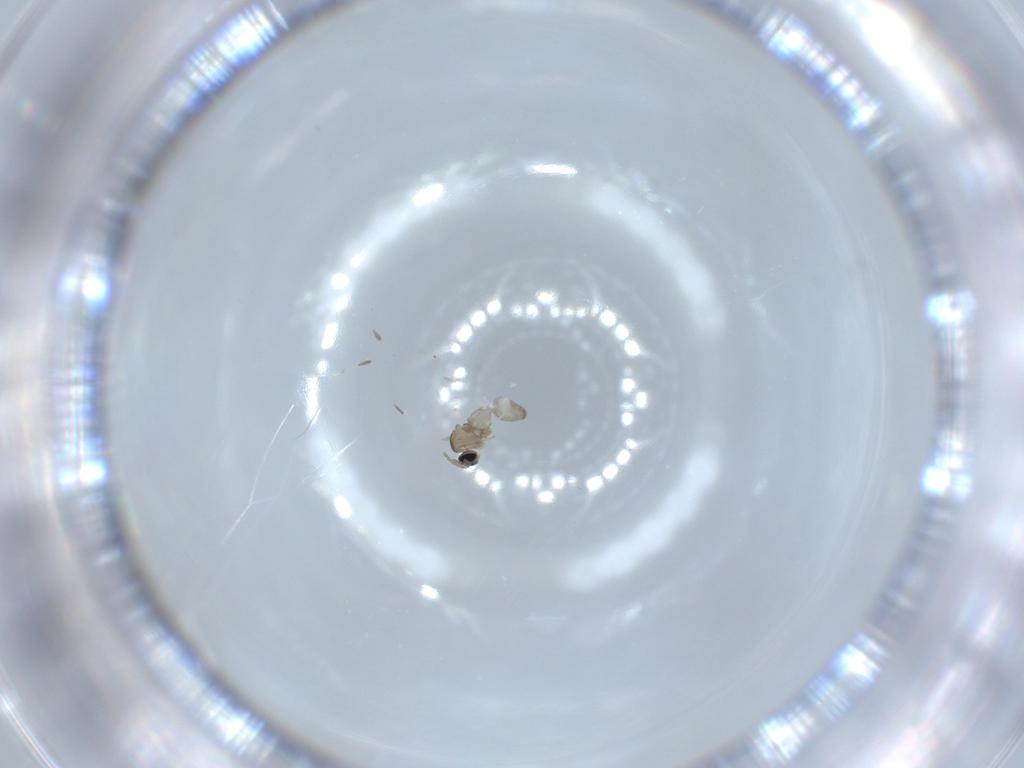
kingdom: Animalia
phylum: Arthropoda
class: Insecta
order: Diptera
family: Cecidomyiidae
